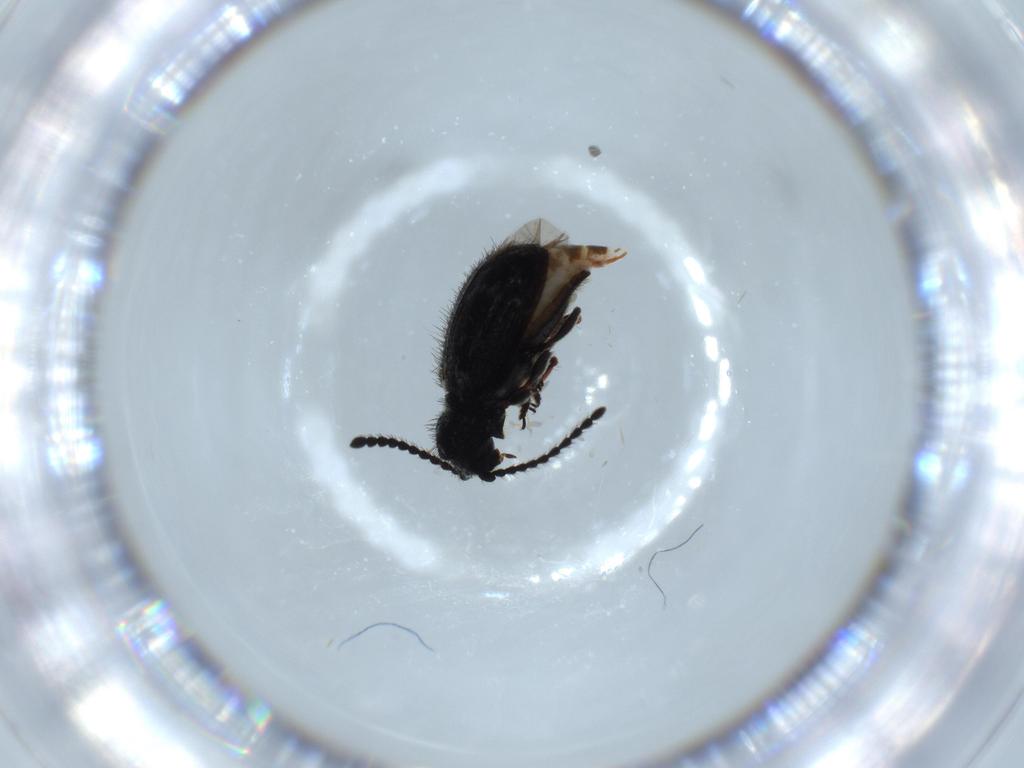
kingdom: Animalia
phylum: Arthropoda
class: Insecta
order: Coleoptera
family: Ptinidae
